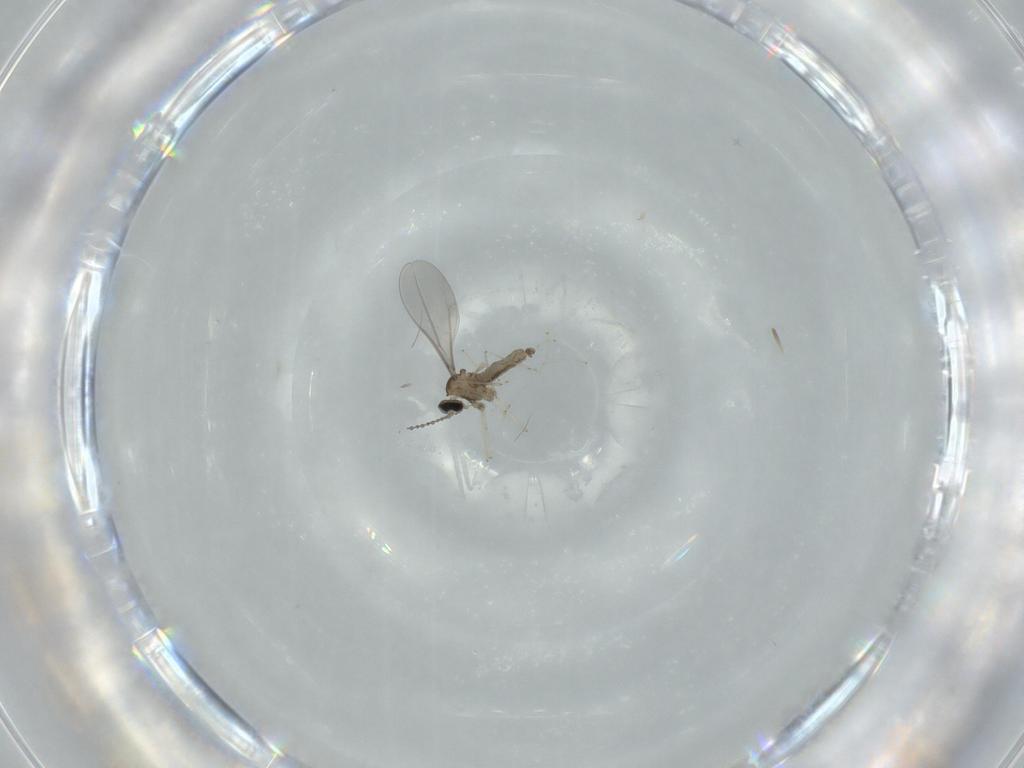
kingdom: Animalia
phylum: Arthropoda
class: Insecta
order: Diptera
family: Cecidomyiidae
